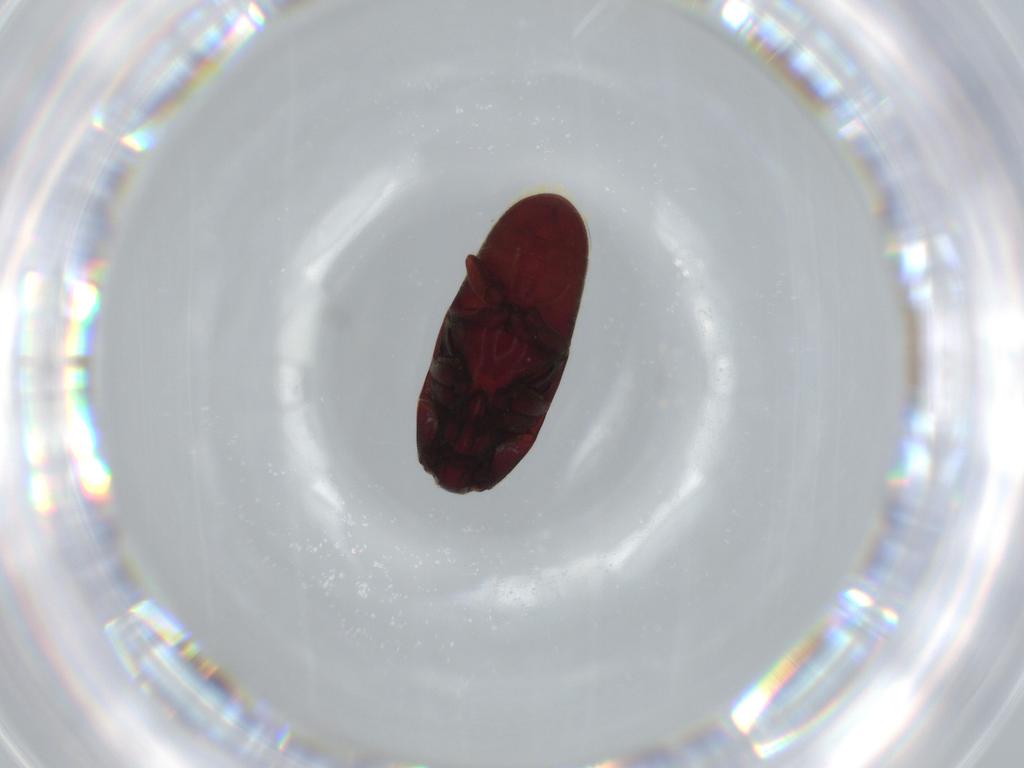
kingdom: Animalia
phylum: Arthropoda
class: Insecta
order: Coleoptera
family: Throscidae
